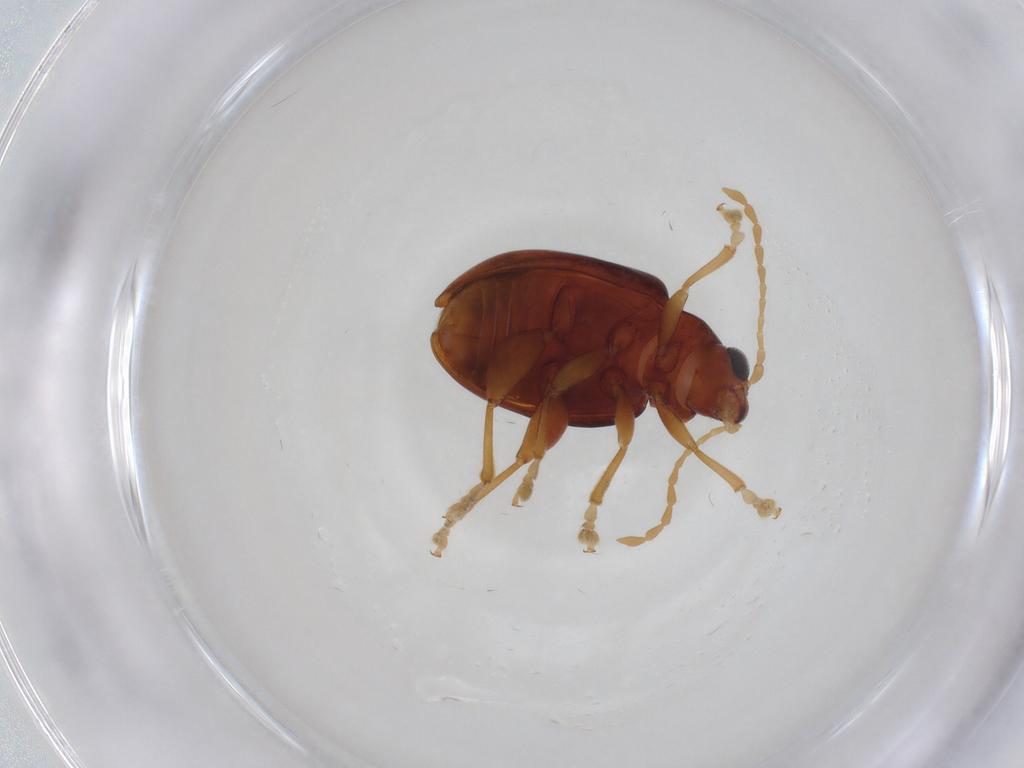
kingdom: Animalia
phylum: Arthropoda
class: Insecta
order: Coleoptera
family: Chrysomelidae
